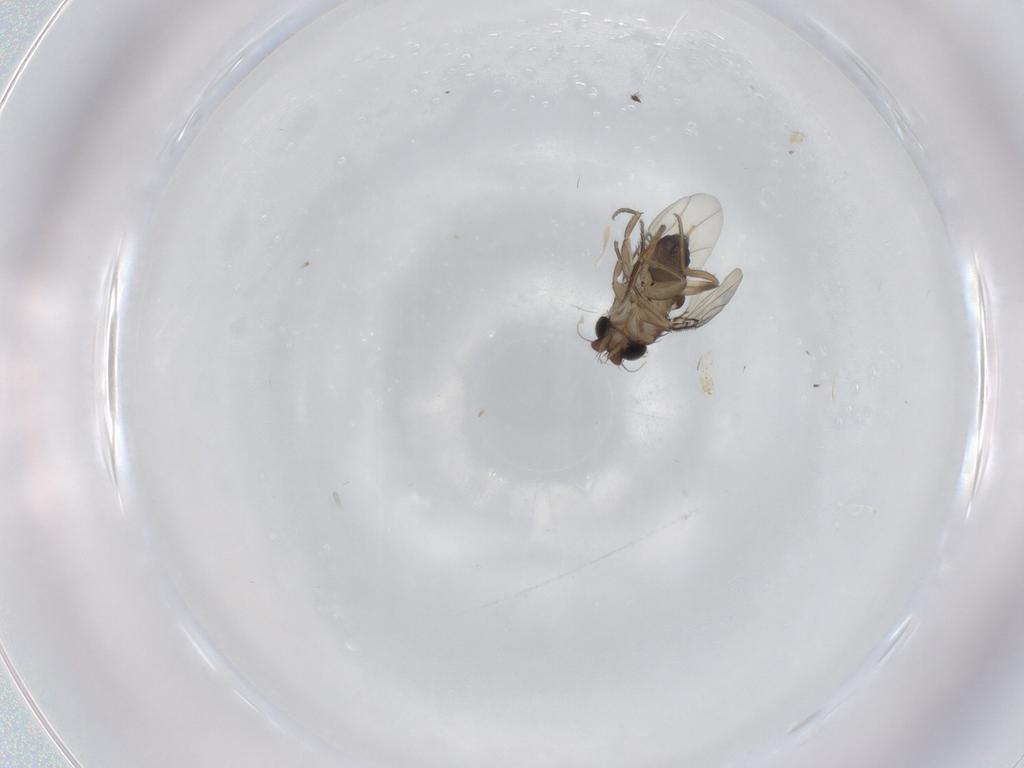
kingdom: Animalia
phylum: Arthropoda
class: Insecta
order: Diptera
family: Phoridae
